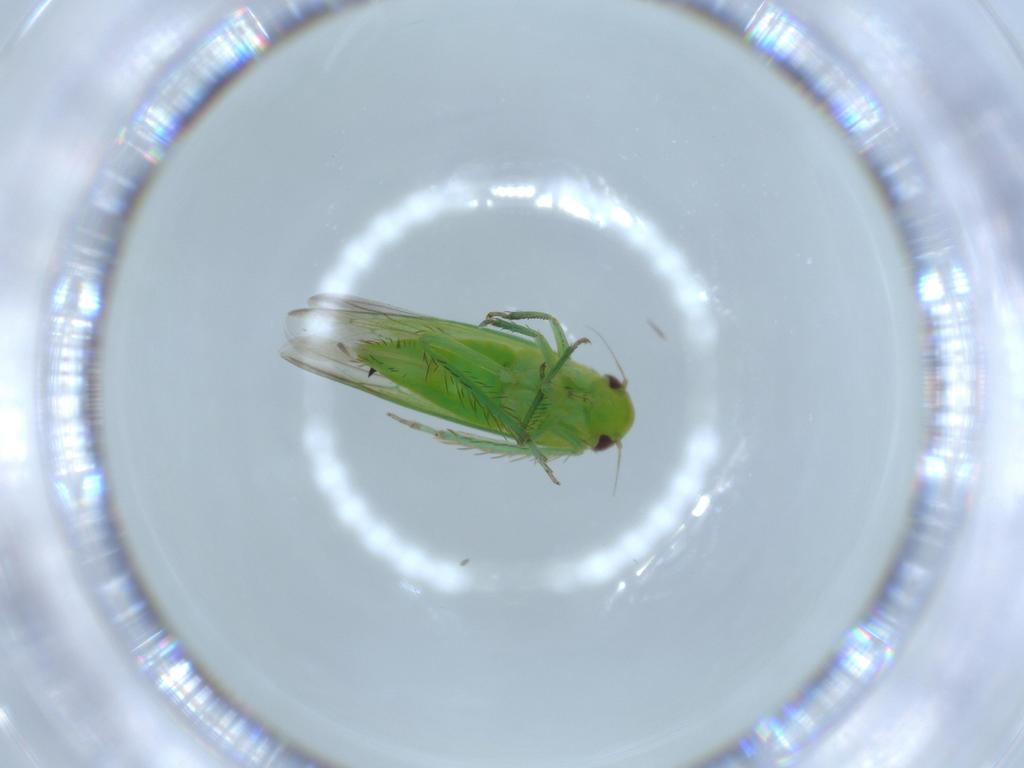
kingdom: Animalia
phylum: Arthropoda
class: Insecta
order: Hemiptera
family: Cicadellidae
